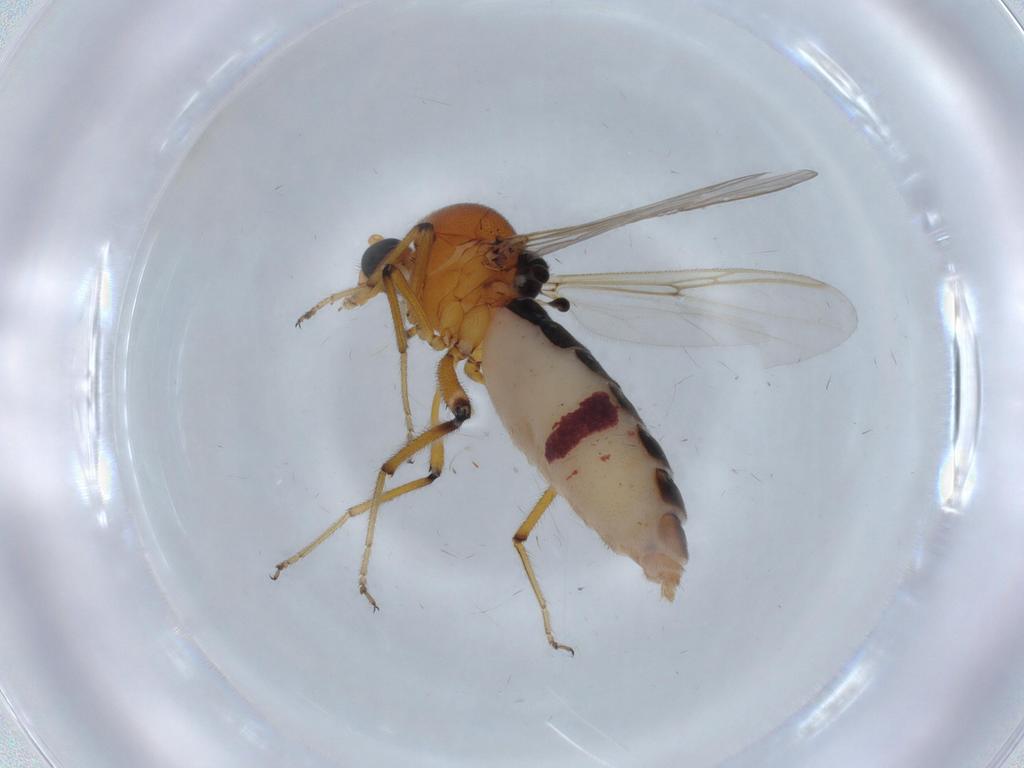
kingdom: Animalia
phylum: Arthropoda
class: Insecta
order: Diptera
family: Ceratopogonidae
